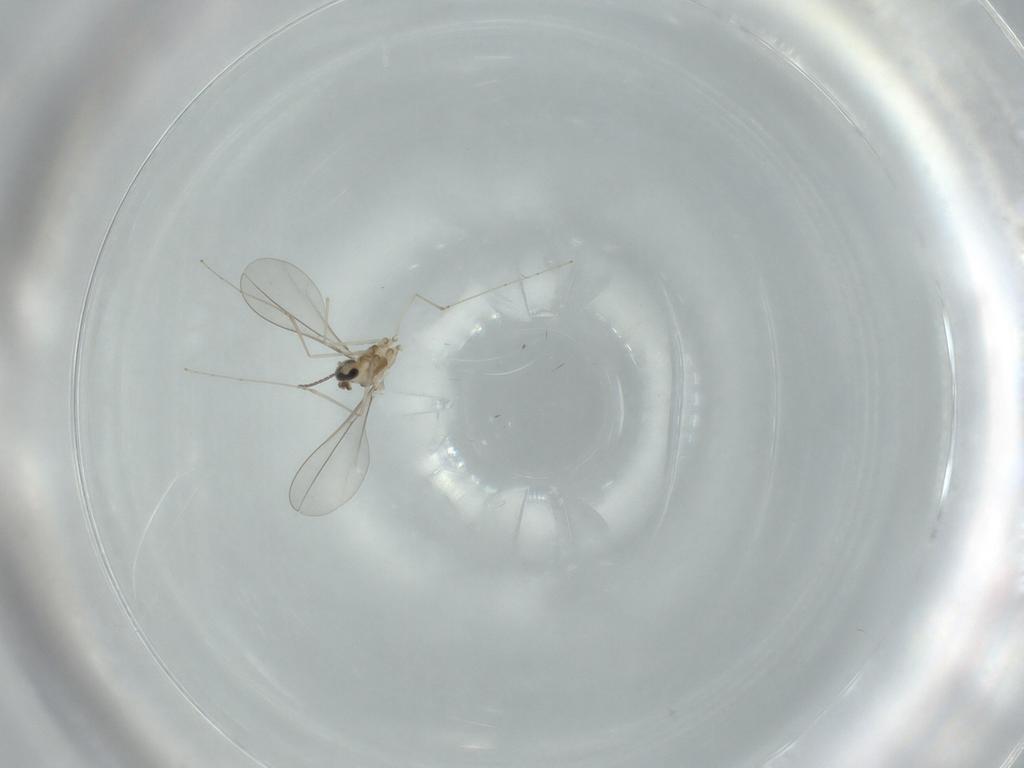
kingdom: Animalia
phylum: Arthropoda
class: Insecta
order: Diptera
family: Cecidomyiidae
